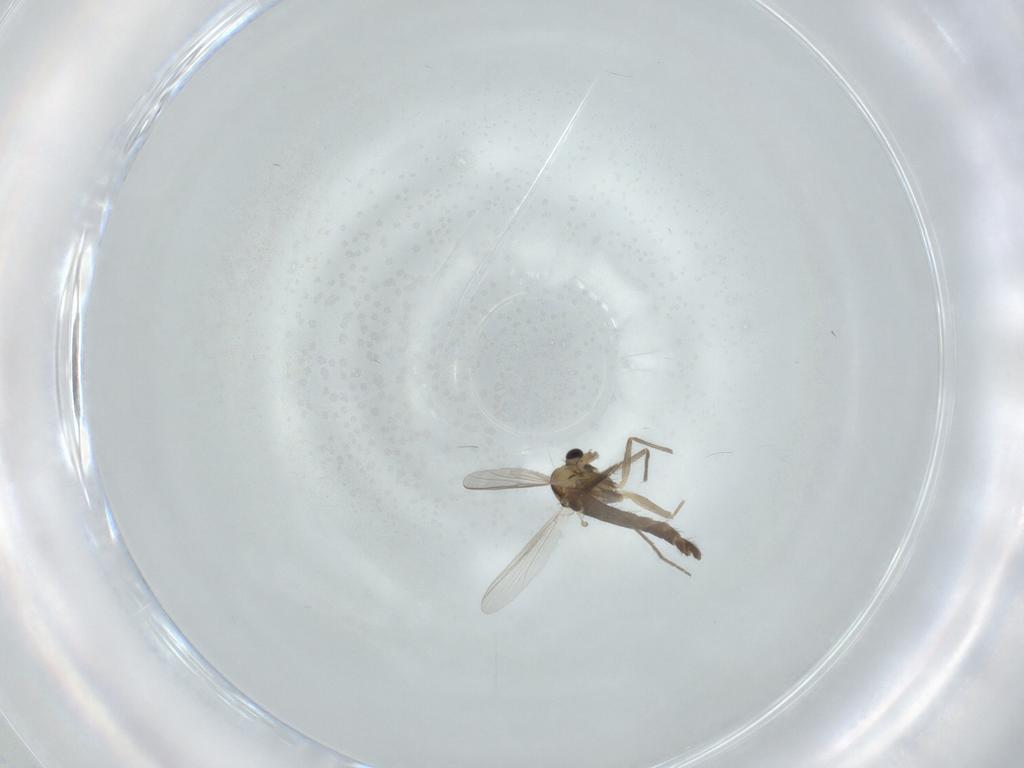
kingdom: Animalia
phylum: Arthropoda
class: Insecta
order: Diptera
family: Chironomidae
